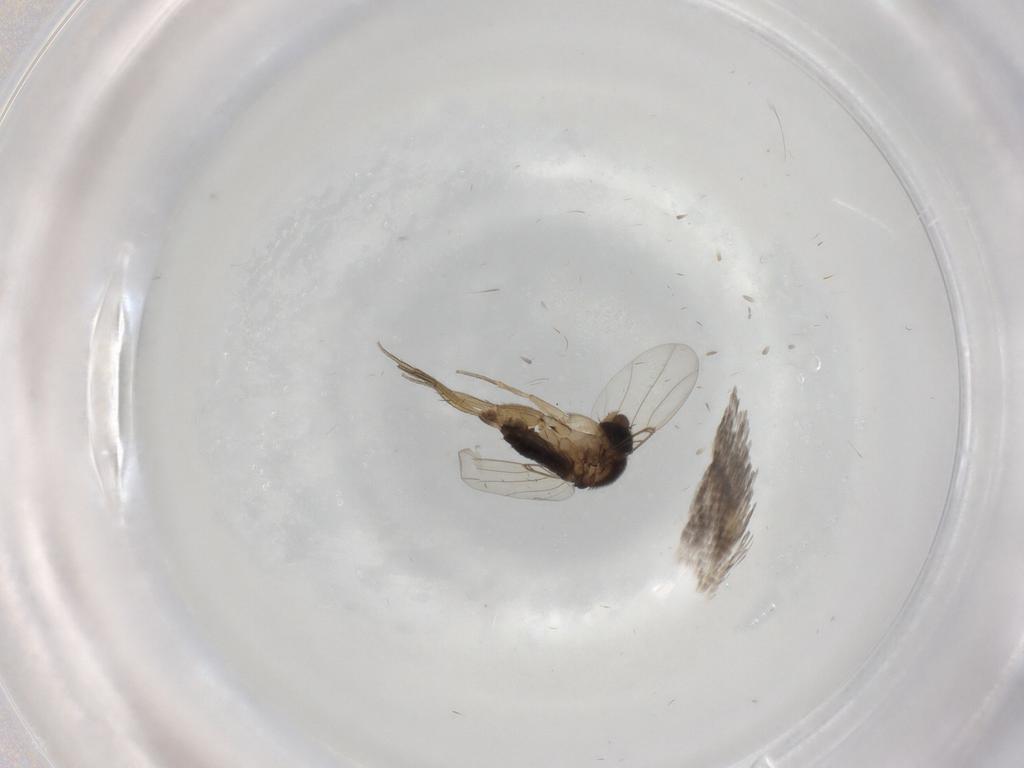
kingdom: Animalia
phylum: Arthropoda
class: Insecta
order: Diptera
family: Phoridae
